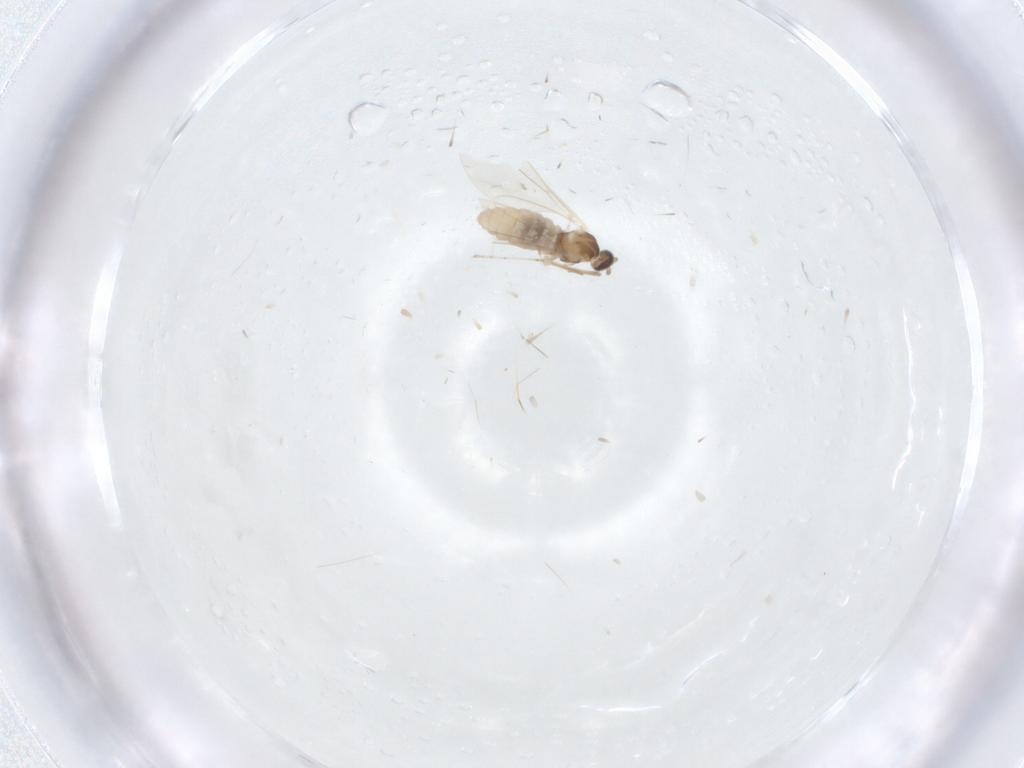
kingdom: Animalia
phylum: Arthropoda
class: Insecta
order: Diptera
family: Cecidomyiidae
